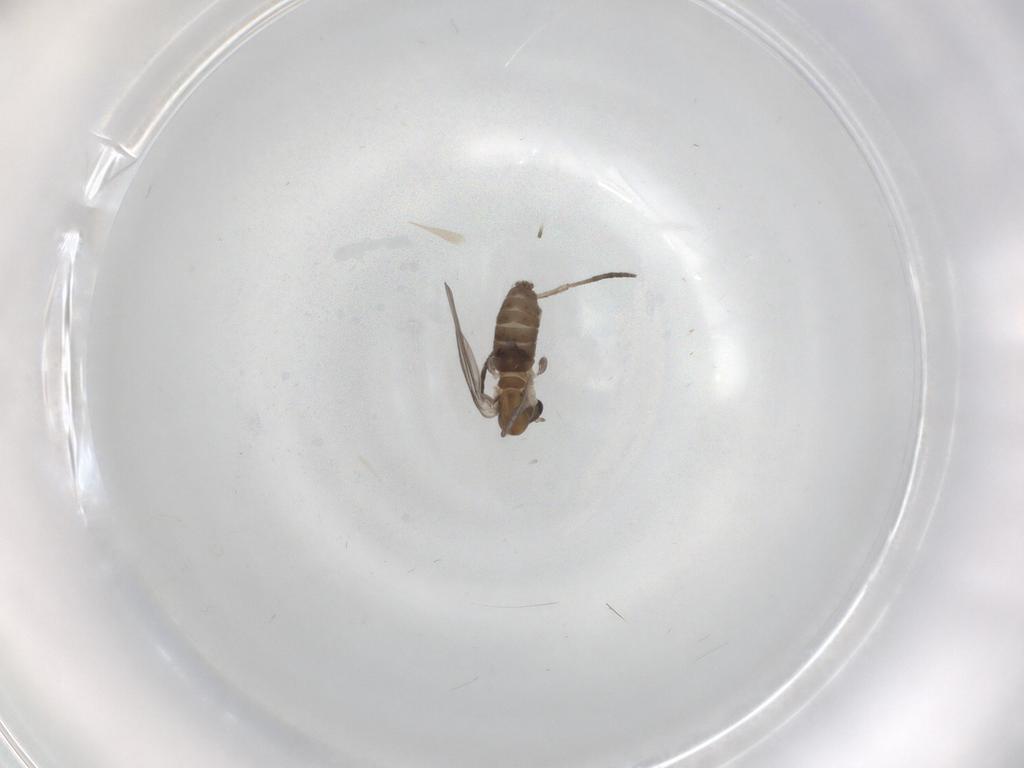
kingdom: Animalia
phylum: Arthropoda
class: Insecta
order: Diptera
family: Psychodidae
